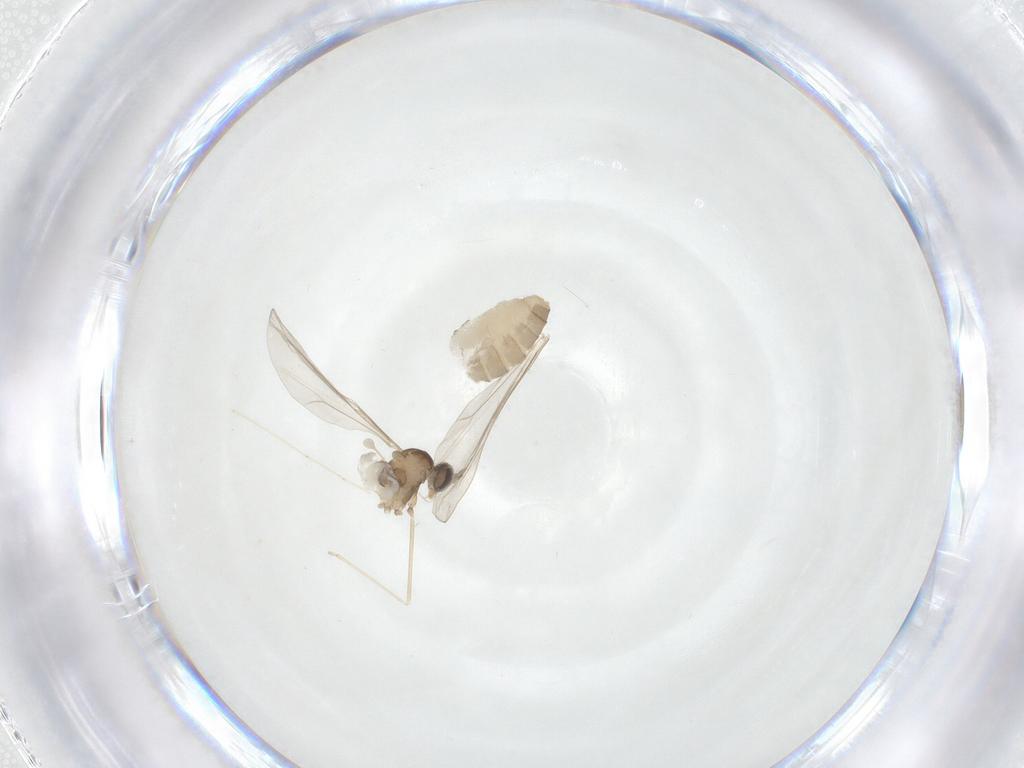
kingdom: Animalia
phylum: Arthropoda
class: Insecta
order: Diptera
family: Cecidomyiidae
